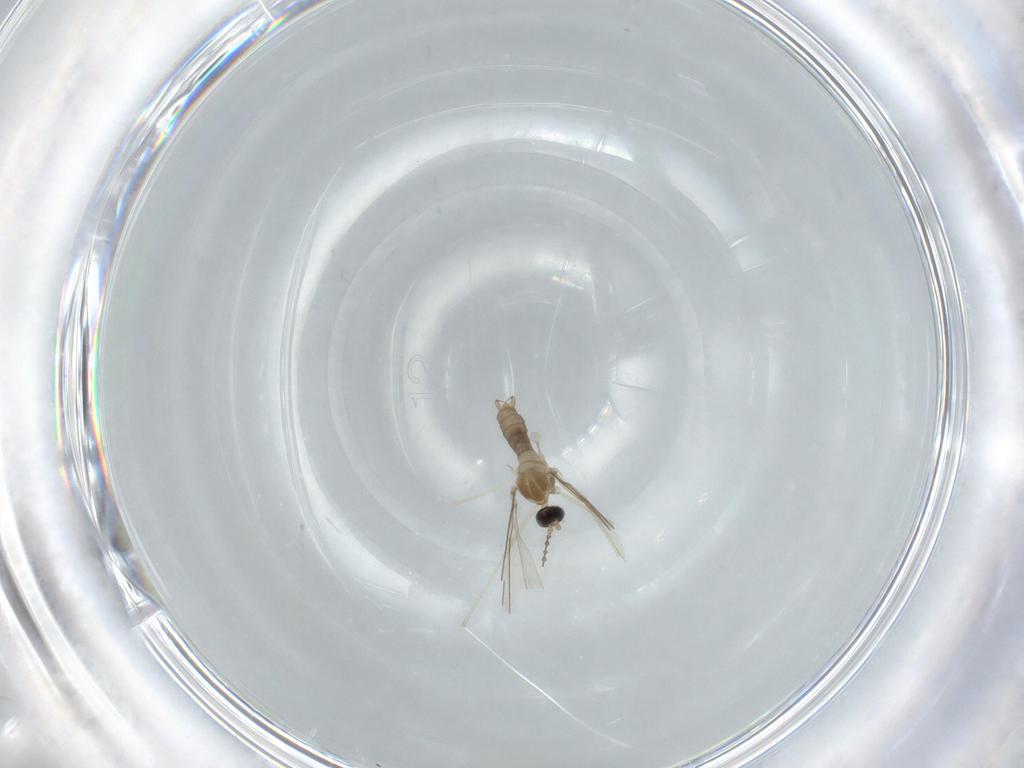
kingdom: Animalia
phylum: Arthropoda
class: Insecta
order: Diptera
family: Cecidomyiidae
